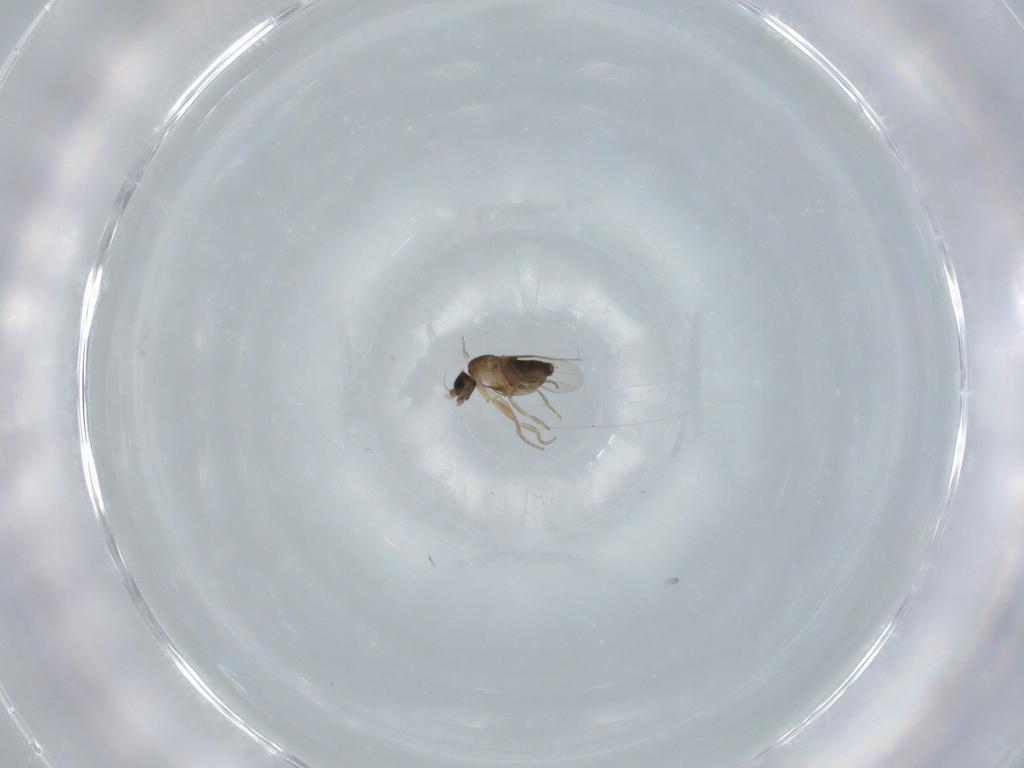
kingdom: Animalia
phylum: Arthropoda
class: Insecta
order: Diptera
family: Phoridae
